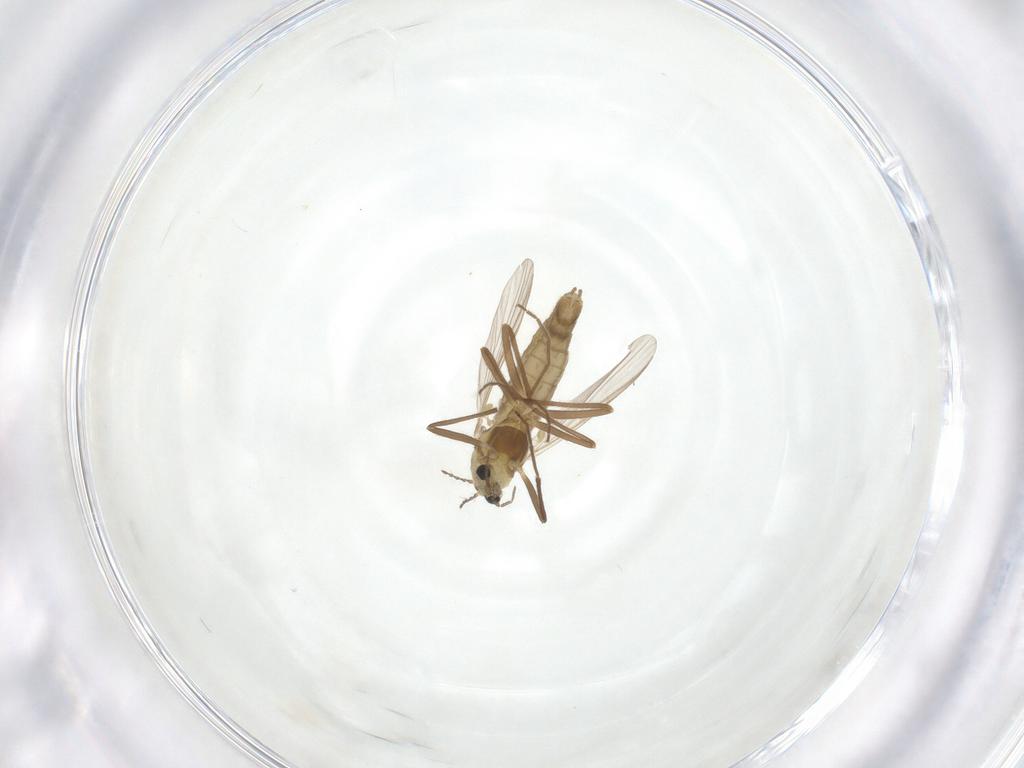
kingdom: Animalia
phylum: Arthropoda
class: Insecta
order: Diptera
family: Chironomidae
